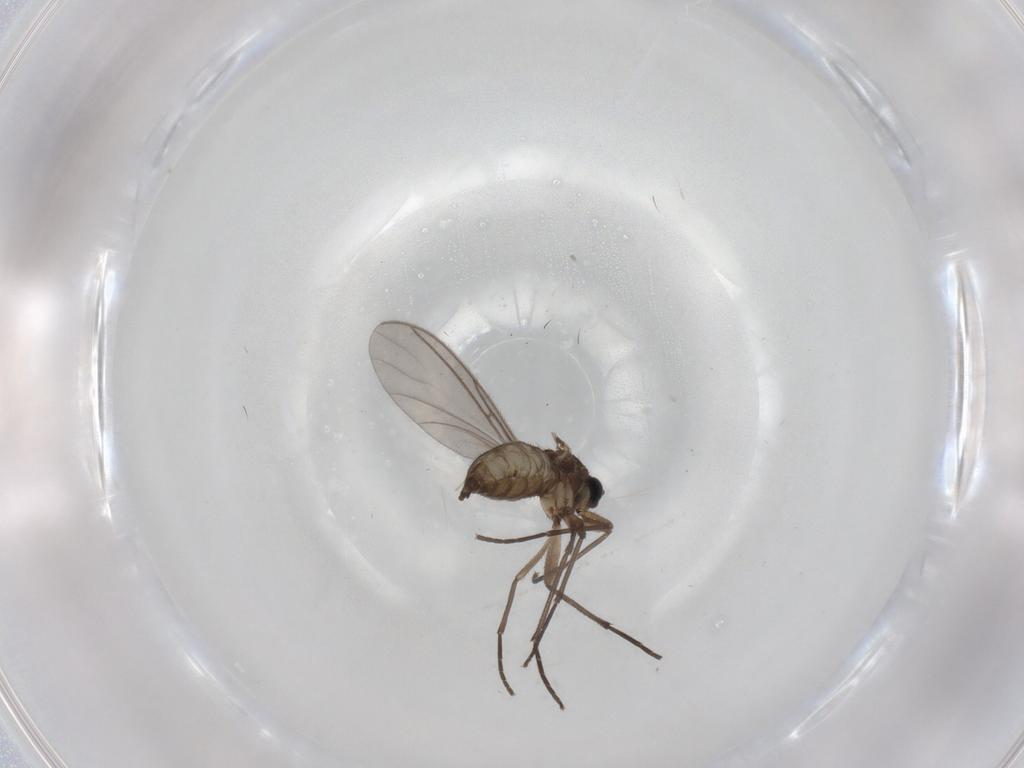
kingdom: Animalia
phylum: Arthropoda
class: Insecta
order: Diptera
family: Sciaridae
